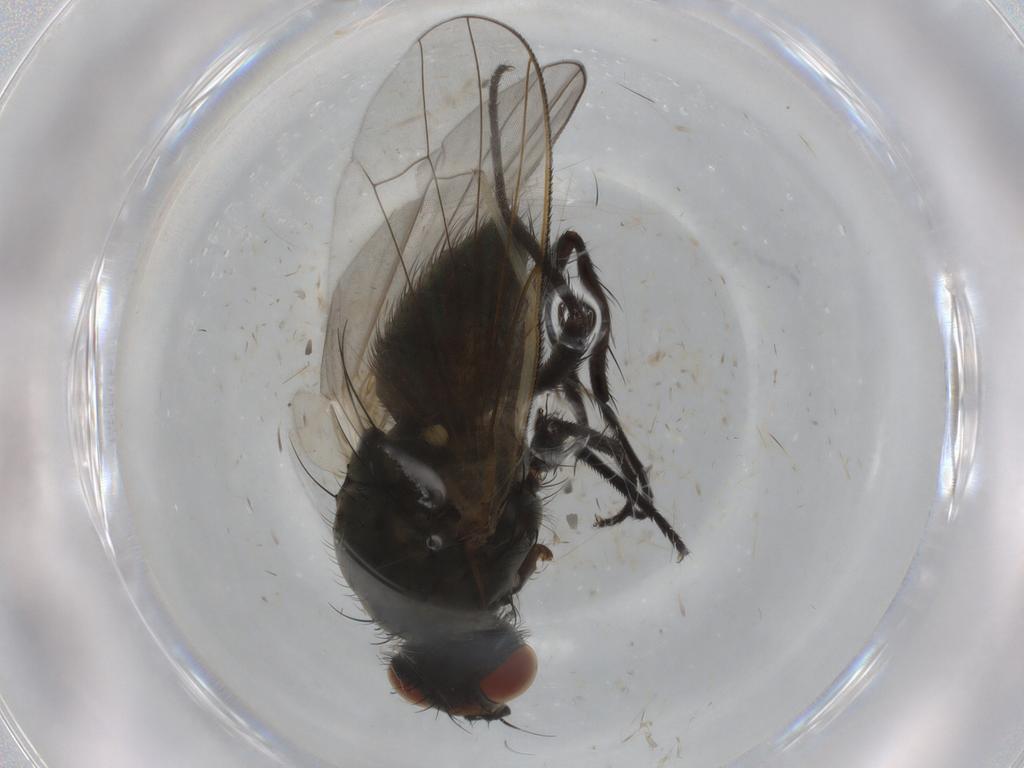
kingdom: Animalia
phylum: Arthropoda
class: Insecta
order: Diptera
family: Anthomyiidae
